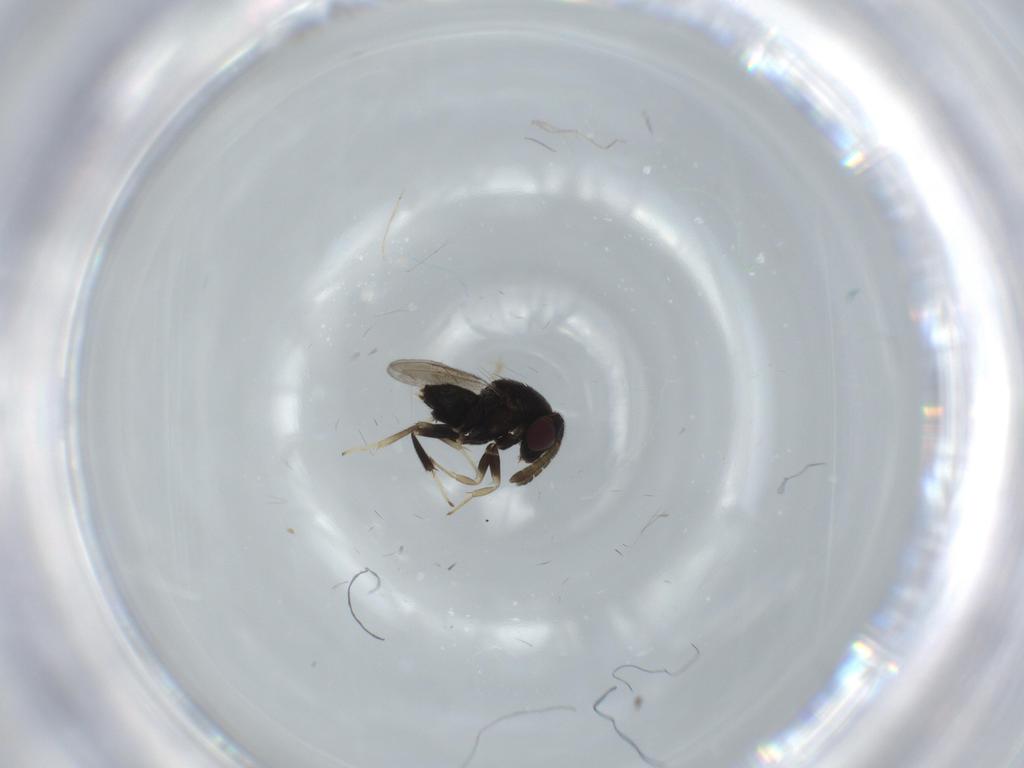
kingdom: Animalia
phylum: Arthropoda
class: Insecta
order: Hymenoptera
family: Aphelinidae
